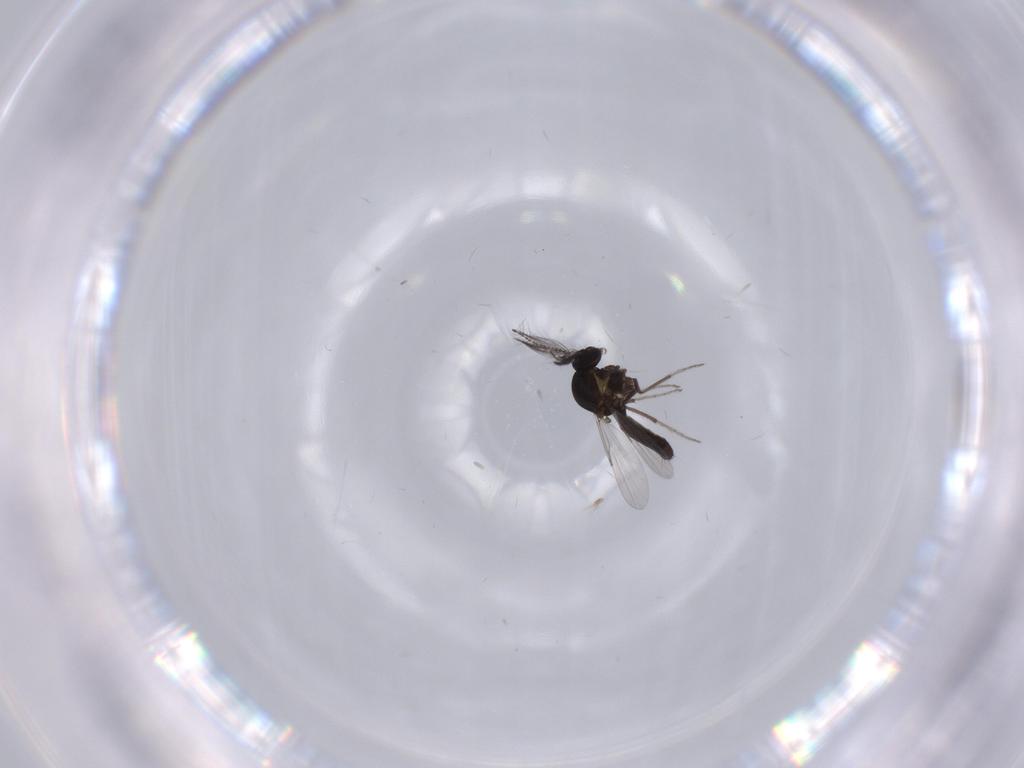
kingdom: Animalia
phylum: Arthropoda
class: Insecta
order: Diptera
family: Ceratopogonidae
